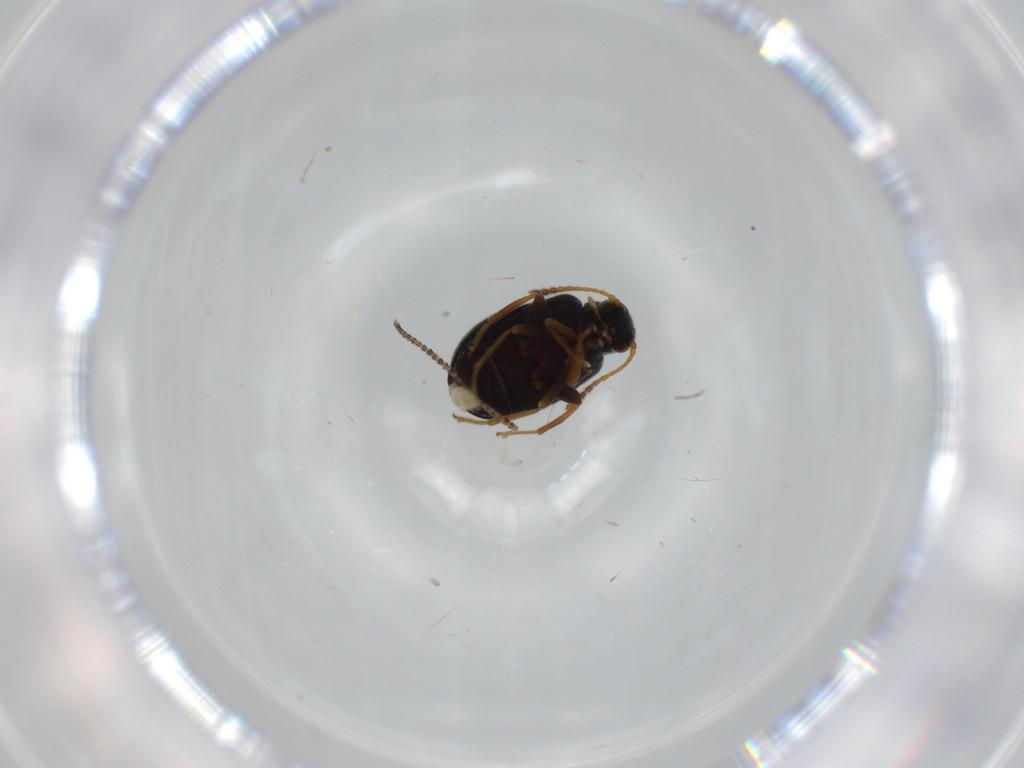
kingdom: Animalia
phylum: Arthropoda
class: Insecta
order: Coleoptera
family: Aderidae
